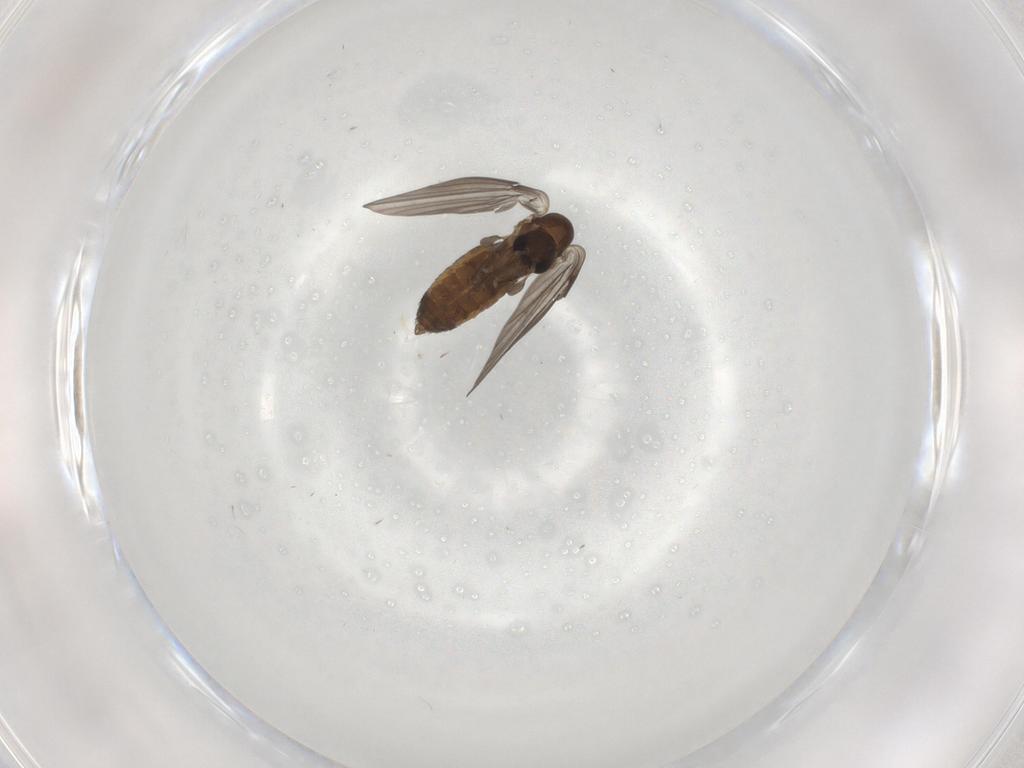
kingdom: Animalia
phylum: Arthropoda
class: Insecta
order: Diptera
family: Psychodidae
